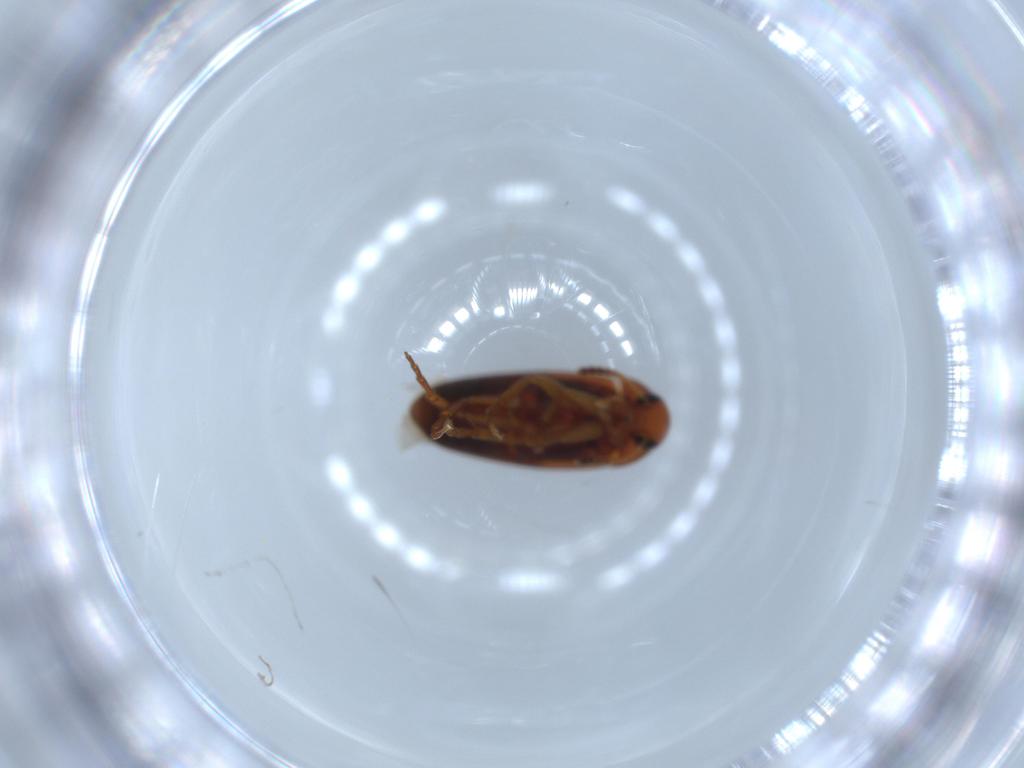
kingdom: Animalia
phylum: Arthropoda
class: Insecta
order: Coleoptera
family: Scraptiidae
